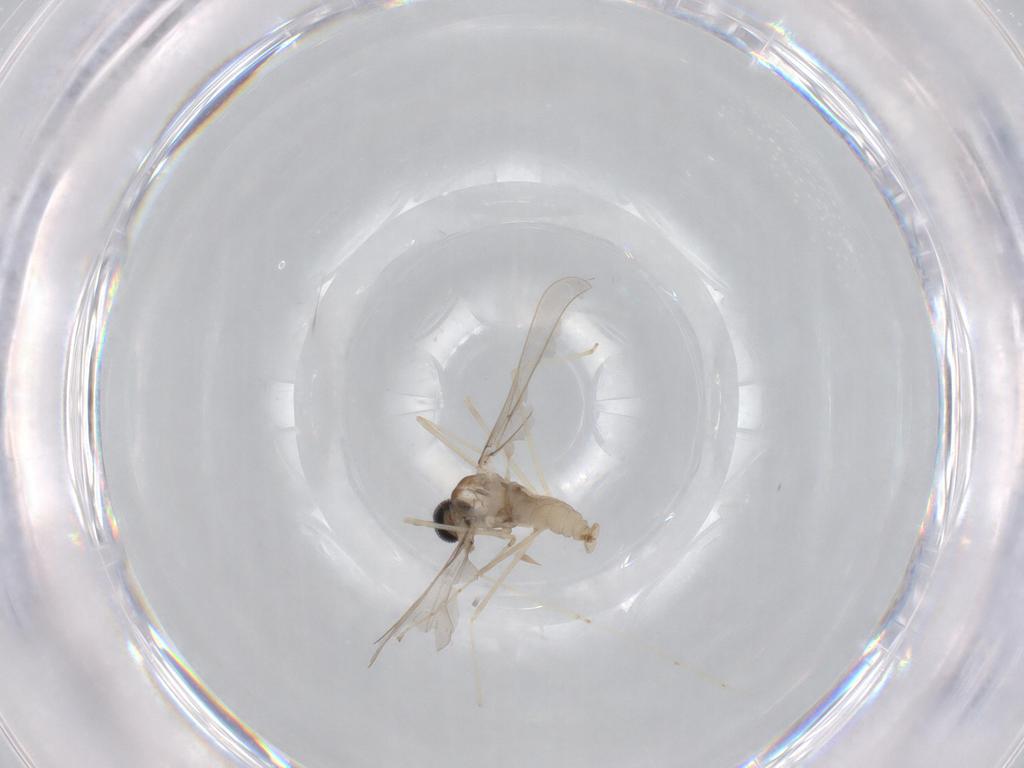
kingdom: Animalia
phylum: Arthropoda
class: Insecta
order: Diptera
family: Cecidomyiidae
